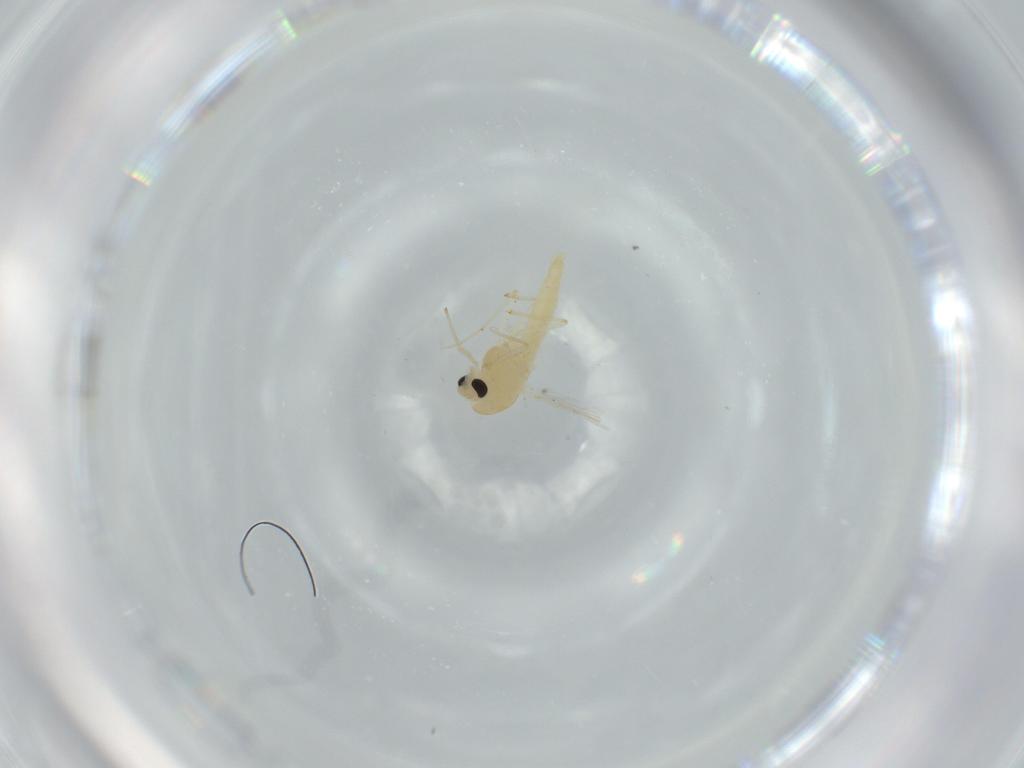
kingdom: Animalia
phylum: Arthropoda
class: Insecta
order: Diptera
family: Chironomidae
